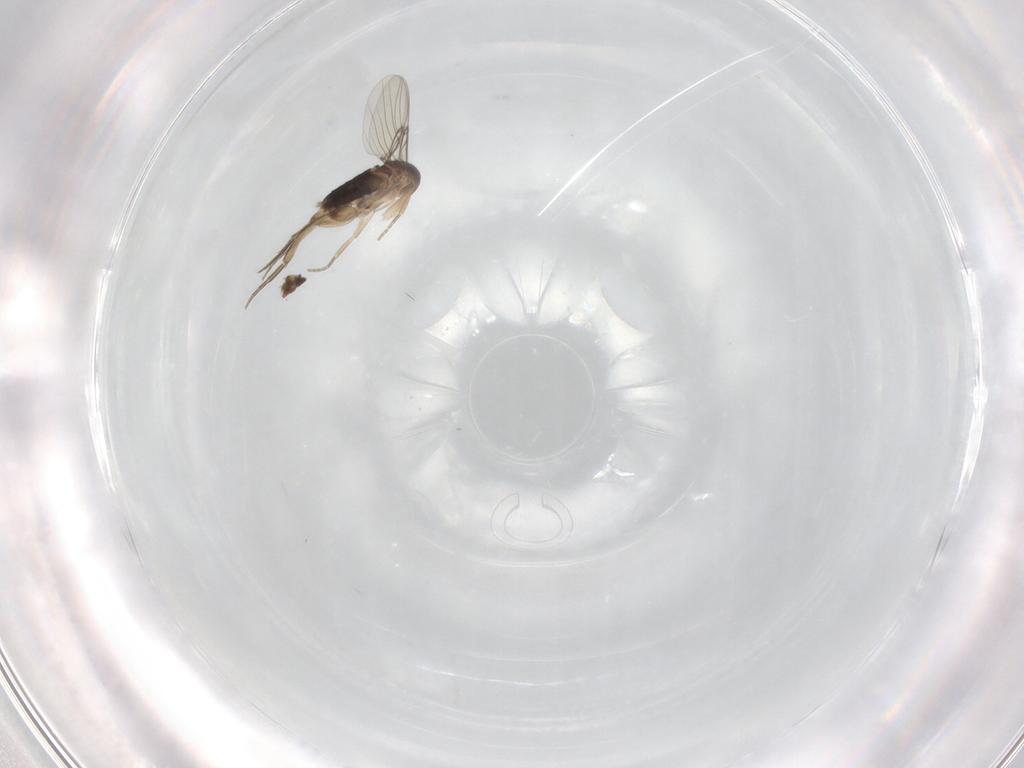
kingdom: Animalia
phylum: Arthropoda
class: Insecta
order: Diptera
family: Chironomidae
